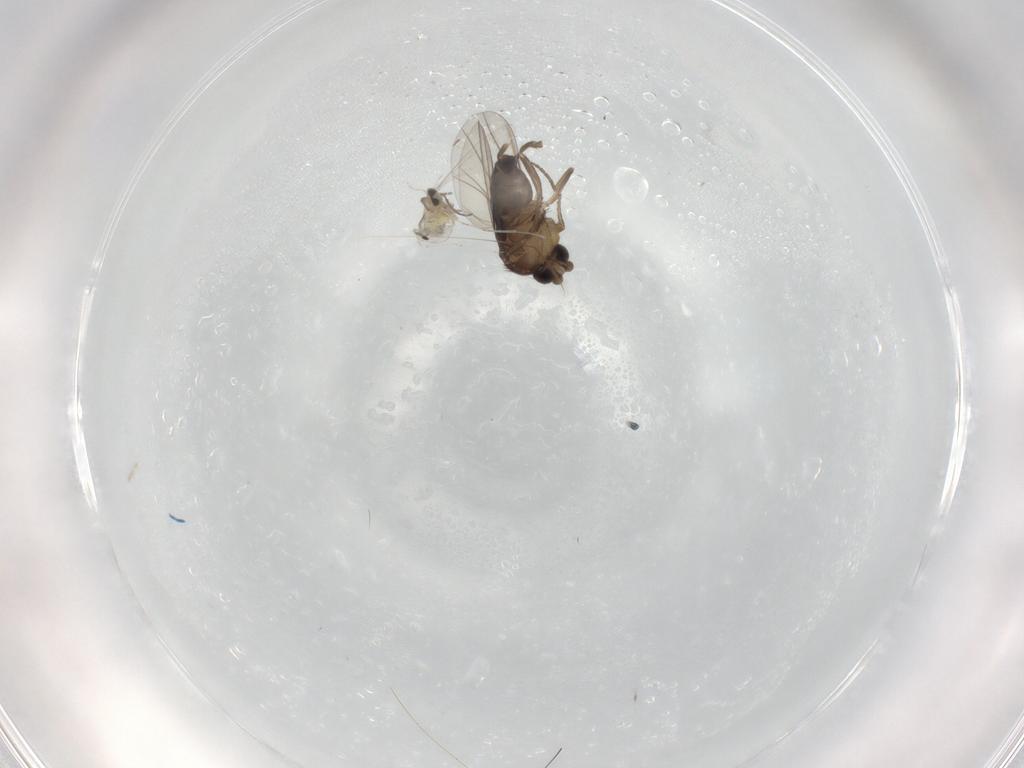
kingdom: Animalia
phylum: Arthropoda
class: Insecta
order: Diptera
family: Cecidomyiidae
